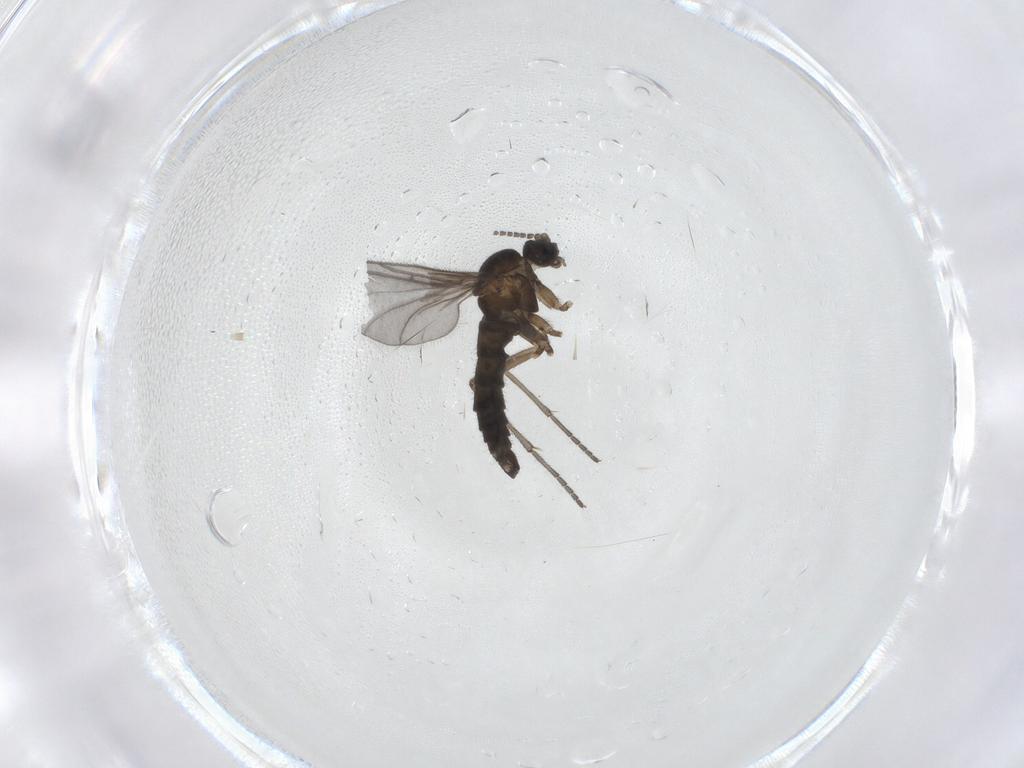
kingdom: Animalia
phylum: Arthropoda
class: Insecta
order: Diptera
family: Sciaridae
